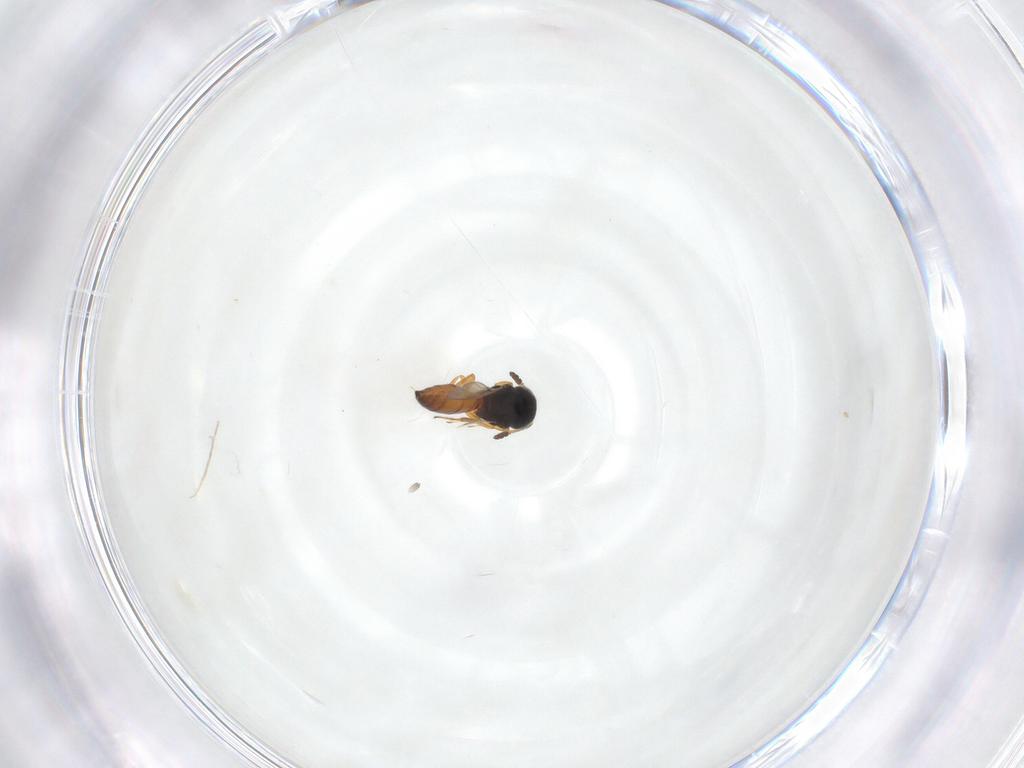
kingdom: Animalia
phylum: Arthropoda
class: Insecta
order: Hymenoptera
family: Scelionidae
